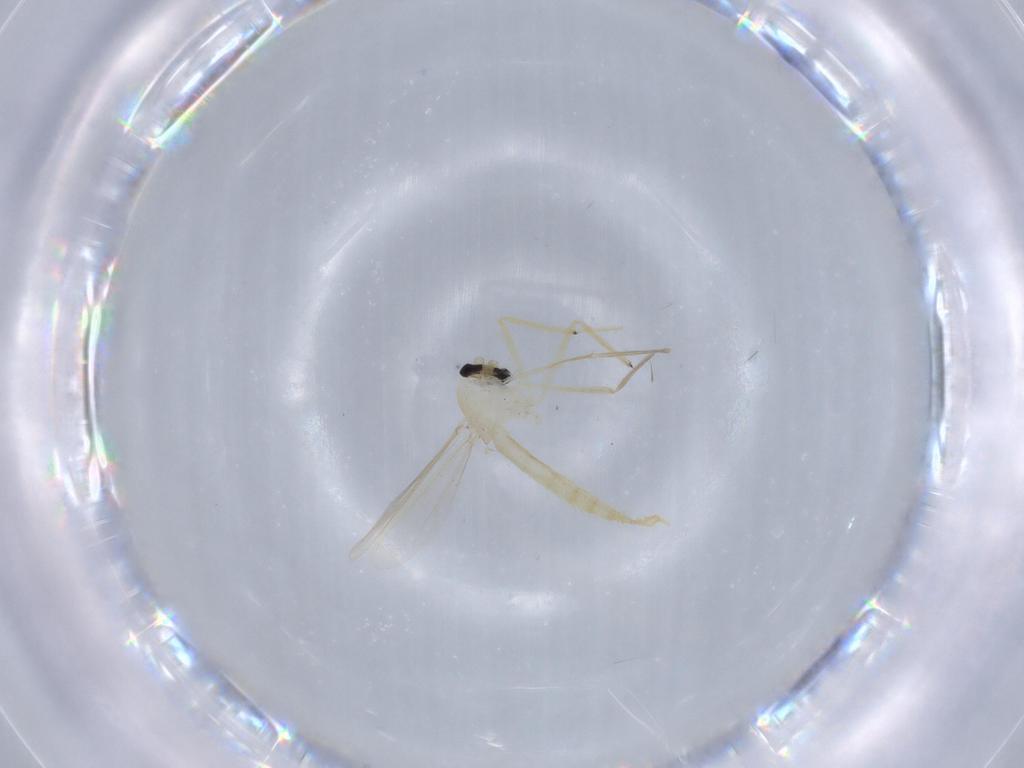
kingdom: Animalia
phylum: Arthropoda
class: Insecta
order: Diptera
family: Chironomidae
